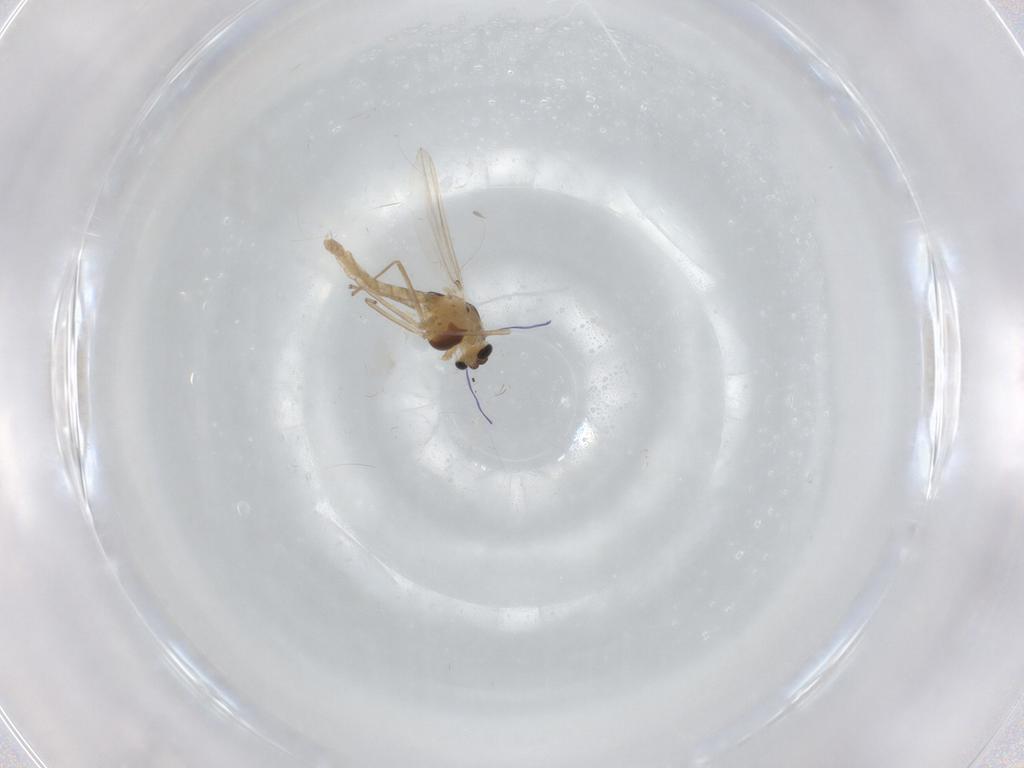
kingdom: Animalia
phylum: Arthropoda
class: Insecta
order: Diptera
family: Chironomidae
